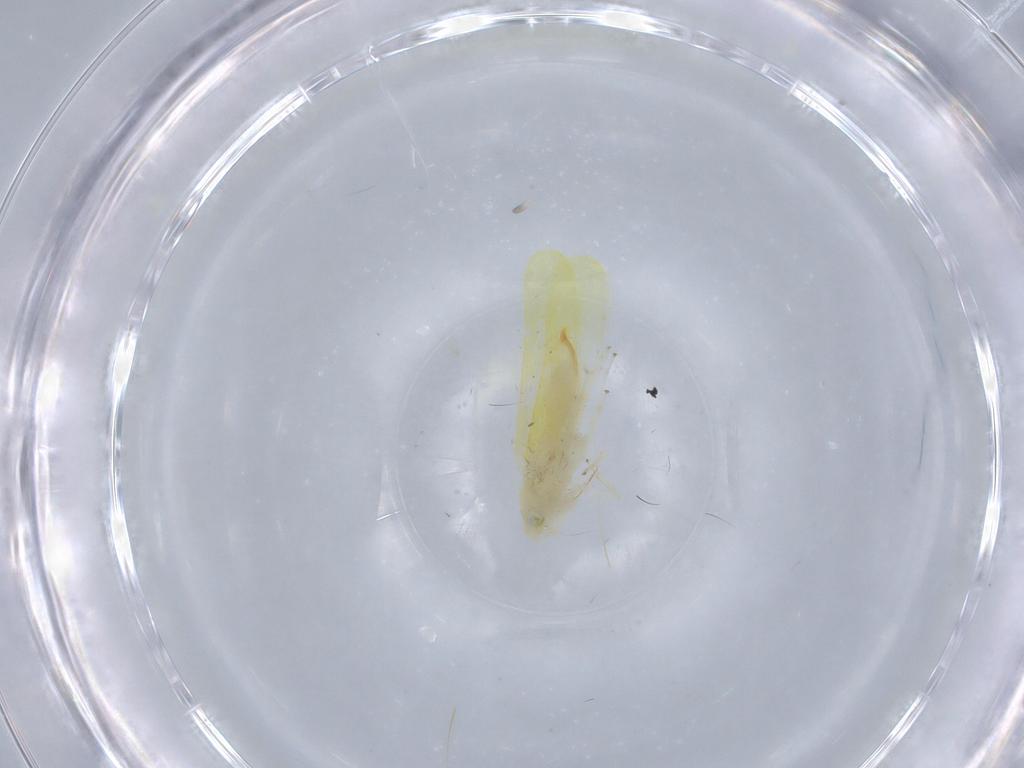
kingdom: Animalia
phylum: Arthropoda
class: Insecta
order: Hemiptera
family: Cicadellidae
